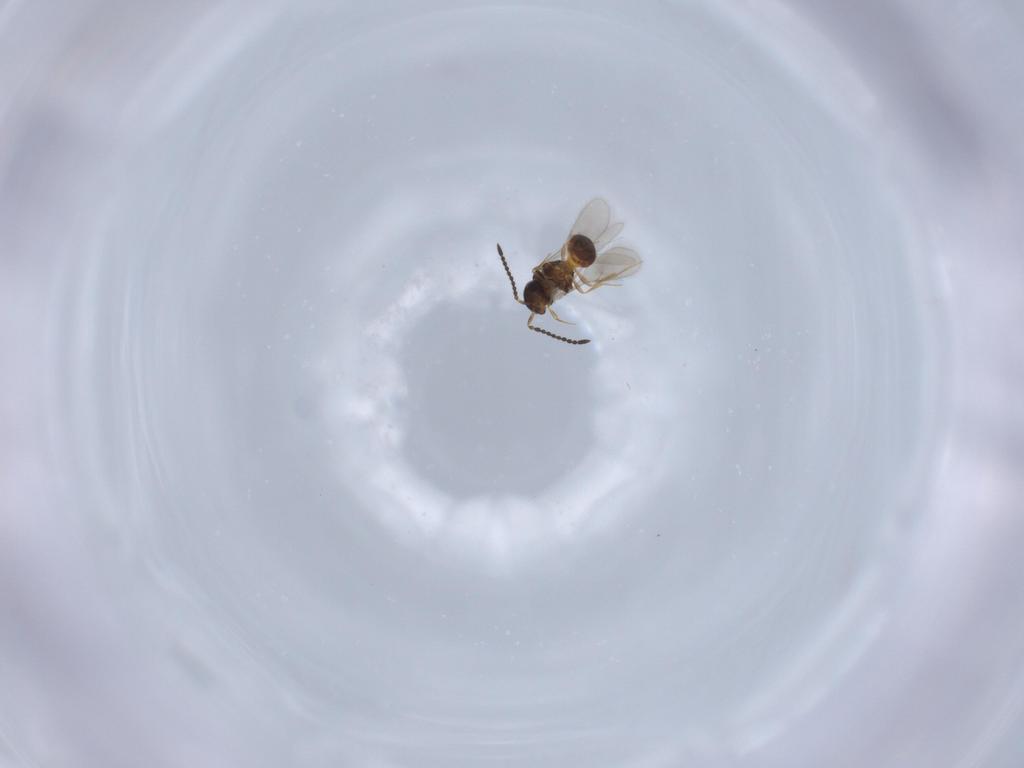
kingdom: Animalia
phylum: Arthropoda
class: Insecta
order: Hymenoptera
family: Scelionidae
